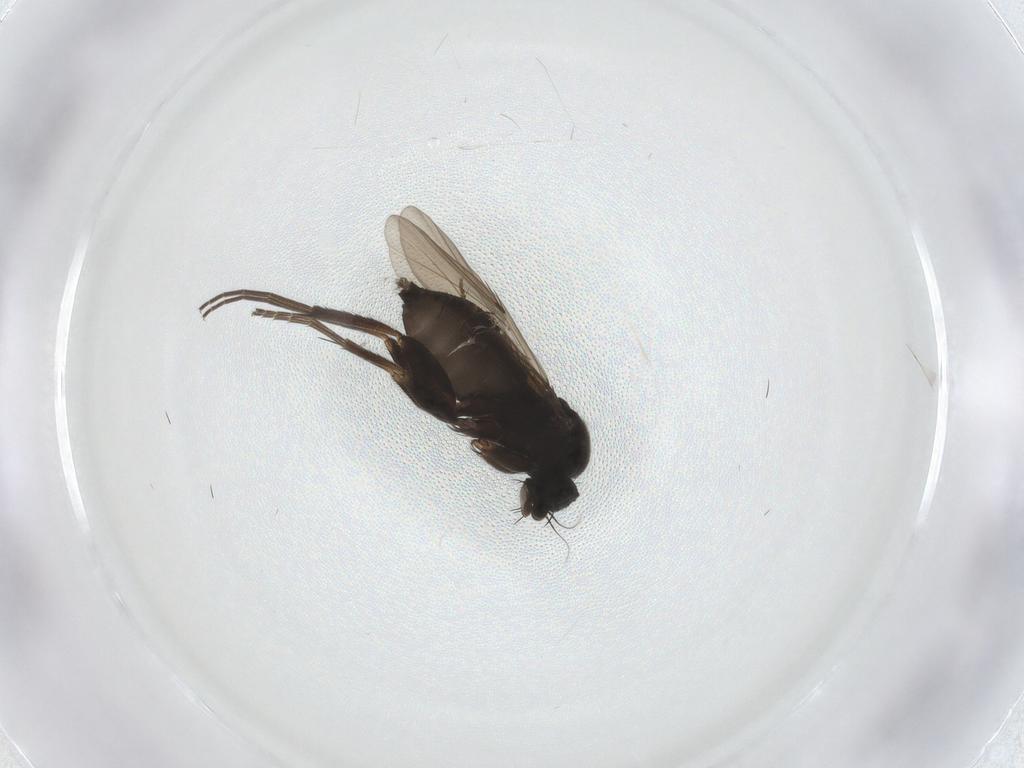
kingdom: Animalia
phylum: Arthropoda
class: Insecta
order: Diptera
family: Phoridae
